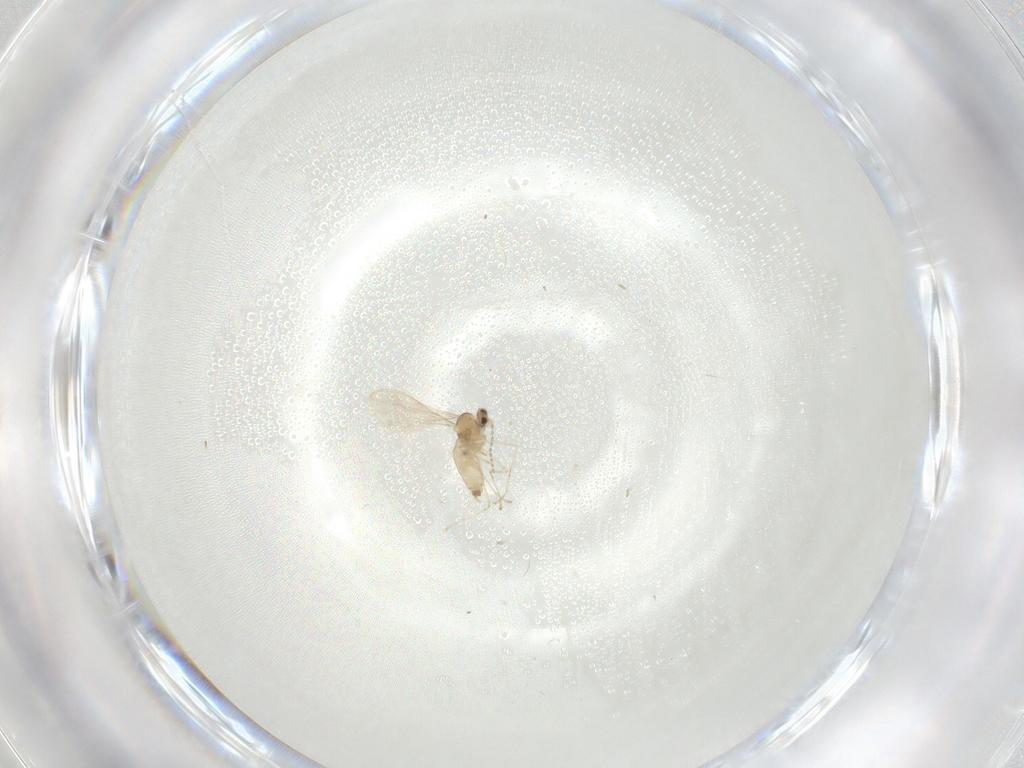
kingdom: Animalia
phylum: Arthropoda
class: Insecta
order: Diptera
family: Cecidomyiidae
